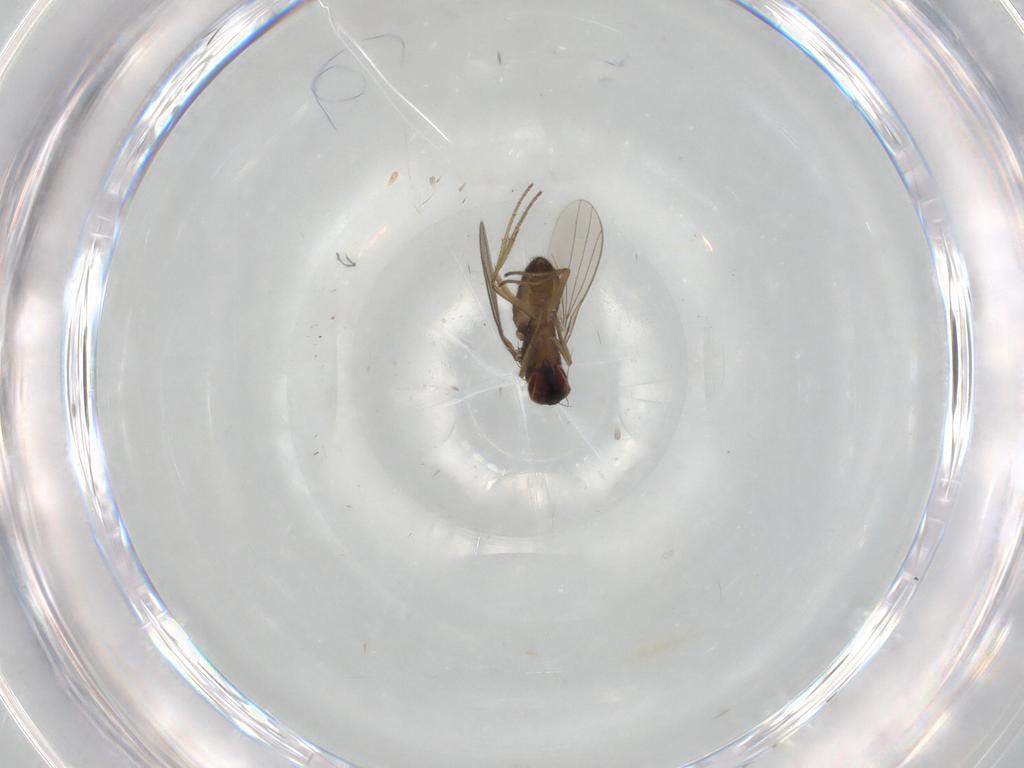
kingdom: Animalia
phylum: Arthropoda
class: Insecta
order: Diptera
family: Dolichopodidae
